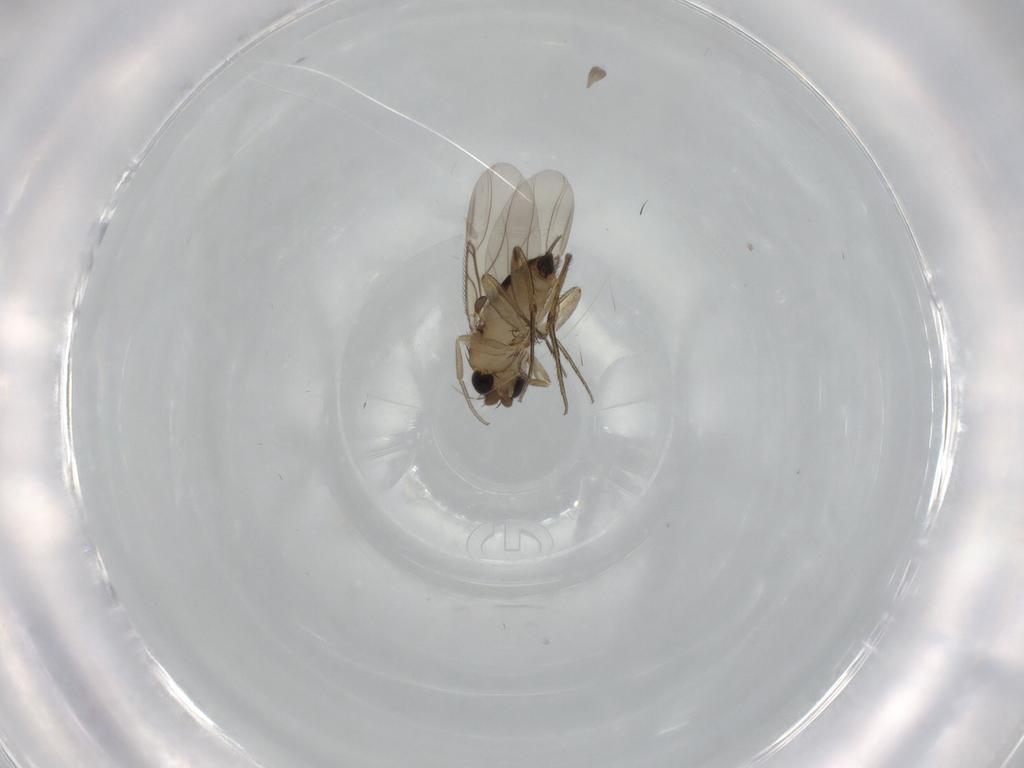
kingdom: Animalia
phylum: Arthropoda
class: Insecta
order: Diptera
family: Phoridae
